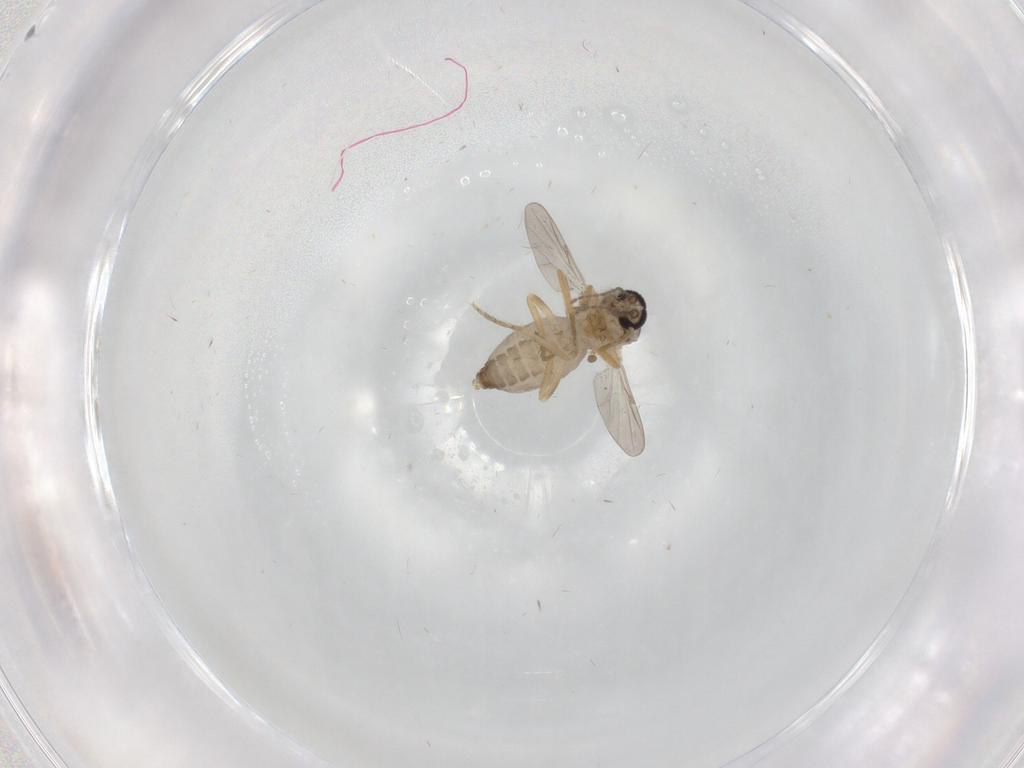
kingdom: Animalia
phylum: Arthropoda
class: Insecta
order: Diptera
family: Ceratopogonidae
